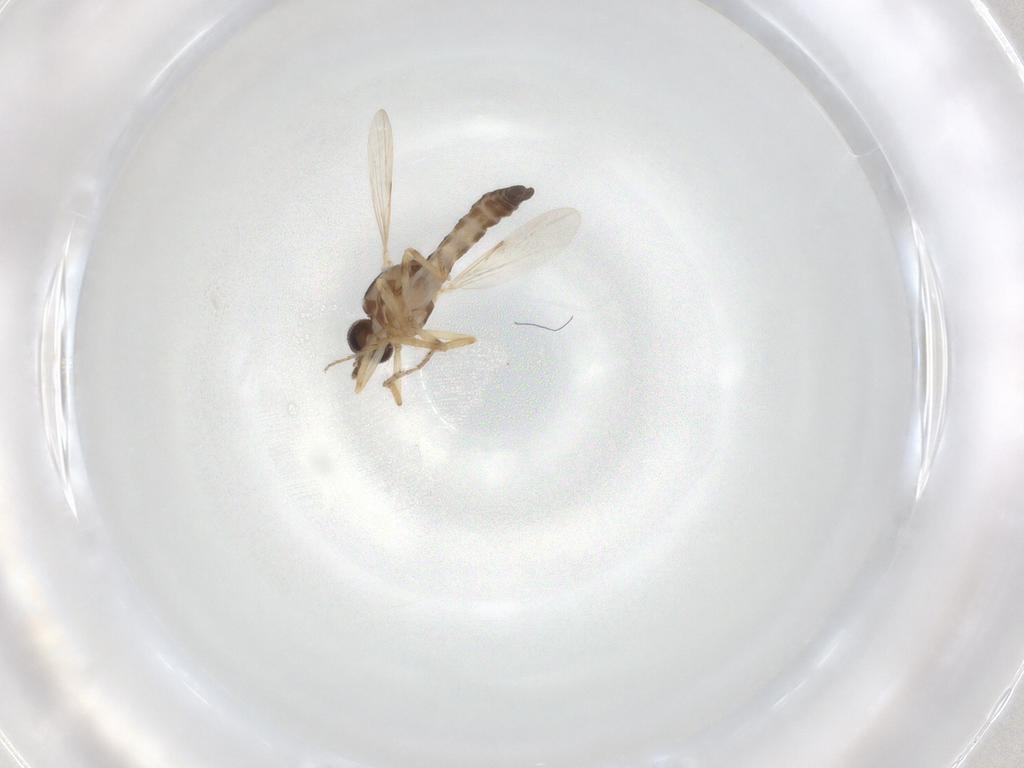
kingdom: Animalia
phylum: Arthropoda
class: Insecta
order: Diptera
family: Ceratopogonidae
